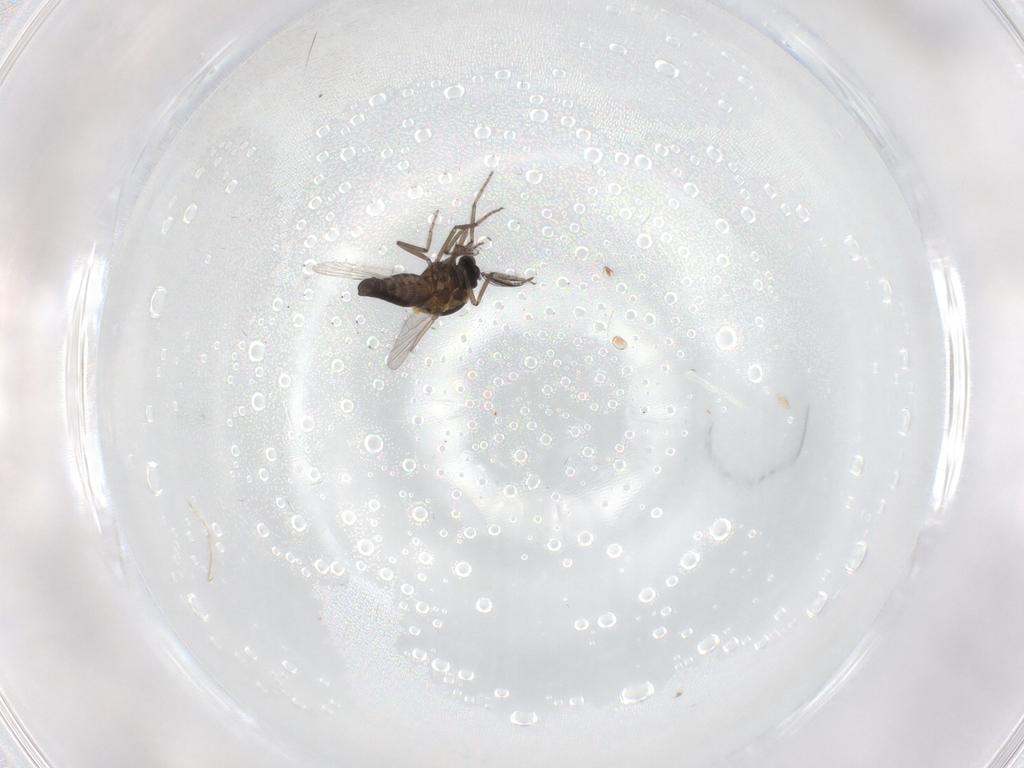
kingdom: Animalia
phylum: Arthropoda
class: Insecta
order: Diptera
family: Ceratopogonidae
